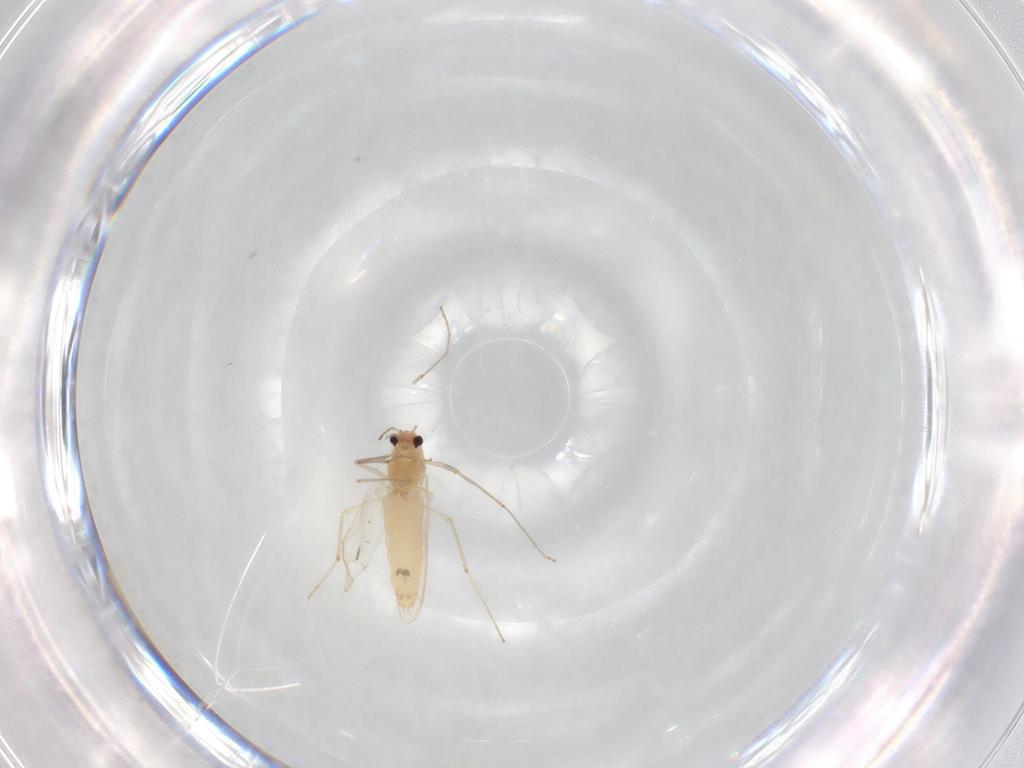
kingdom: Animalia
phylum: Arthropoda
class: Insecta
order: Diptera
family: Chironomidae
